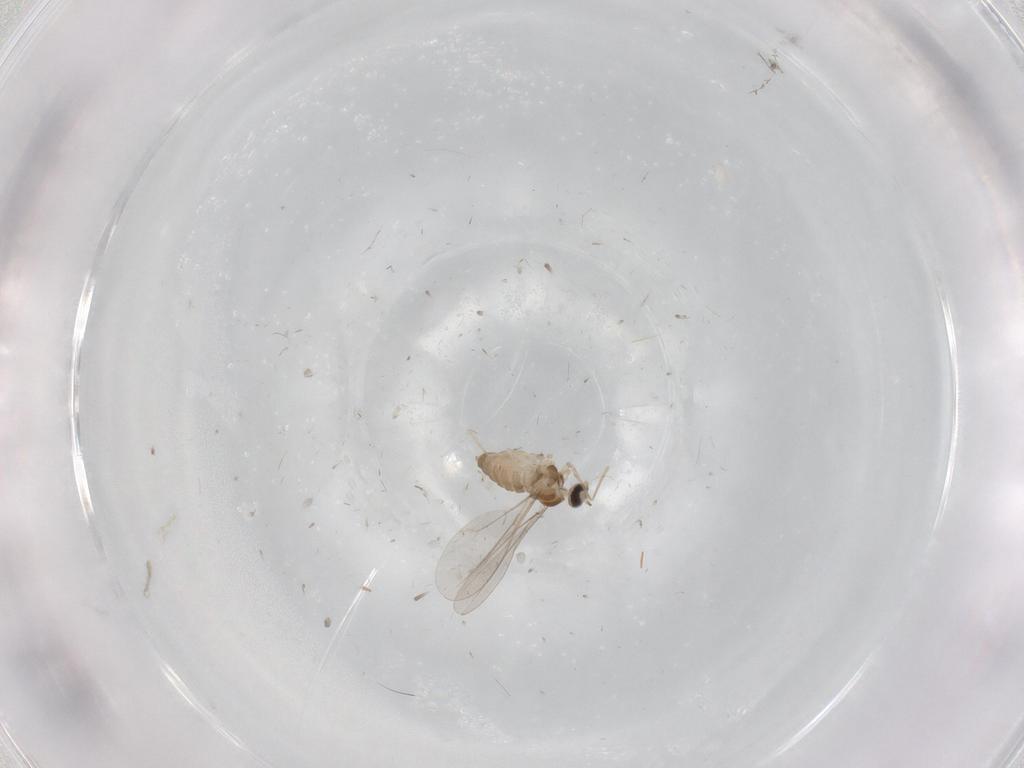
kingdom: Animalia
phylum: Arthropoda
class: Insecta
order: Diptera
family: Cecidomyiidae
